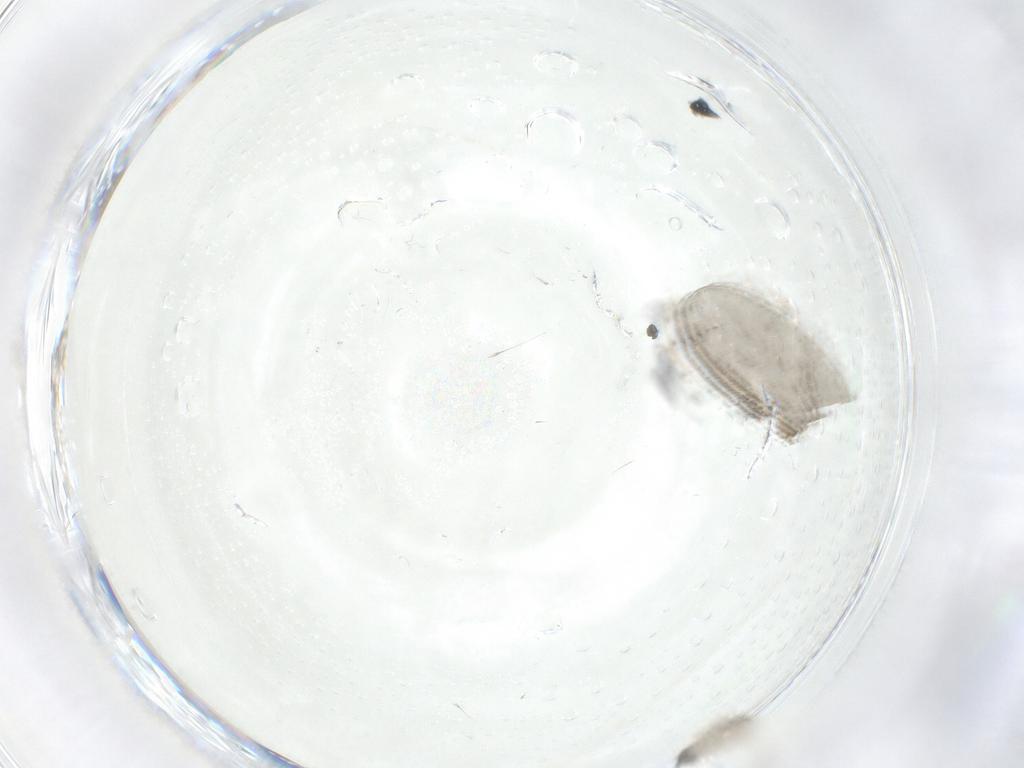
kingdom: Animalia
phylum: Arthropoda
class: Insecta
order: Diptera
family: Cecidomyiidae
